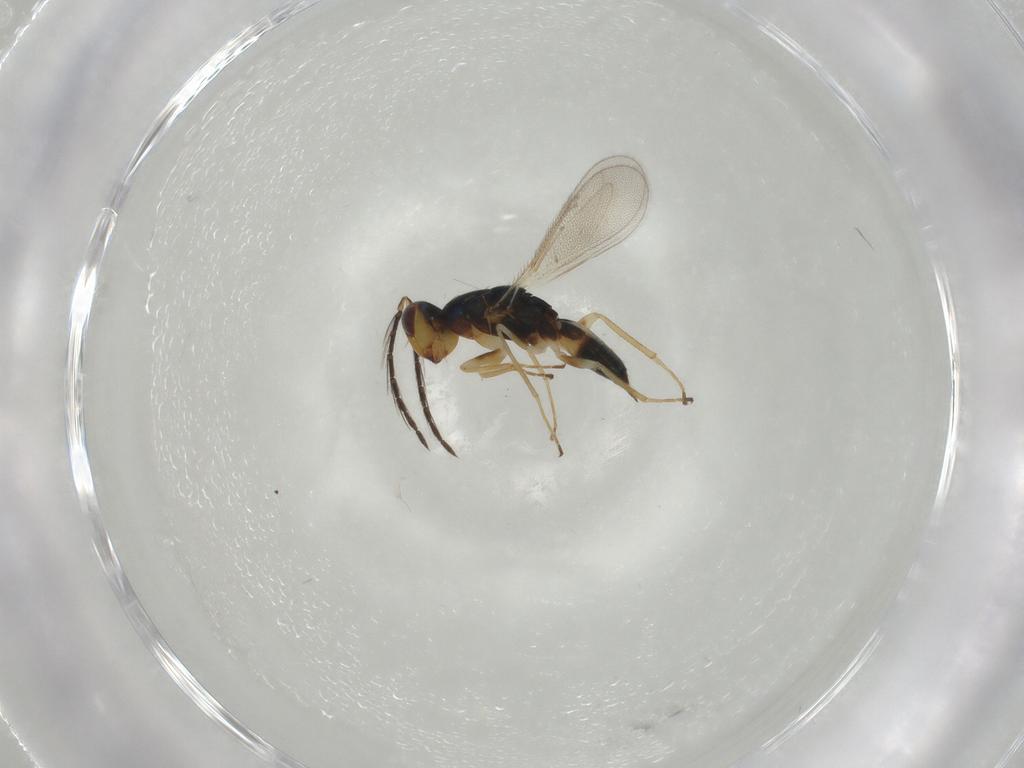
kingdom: Animalia
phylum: Arthropoda
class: Insecta
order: Hymenoptera
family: Eulophidae
